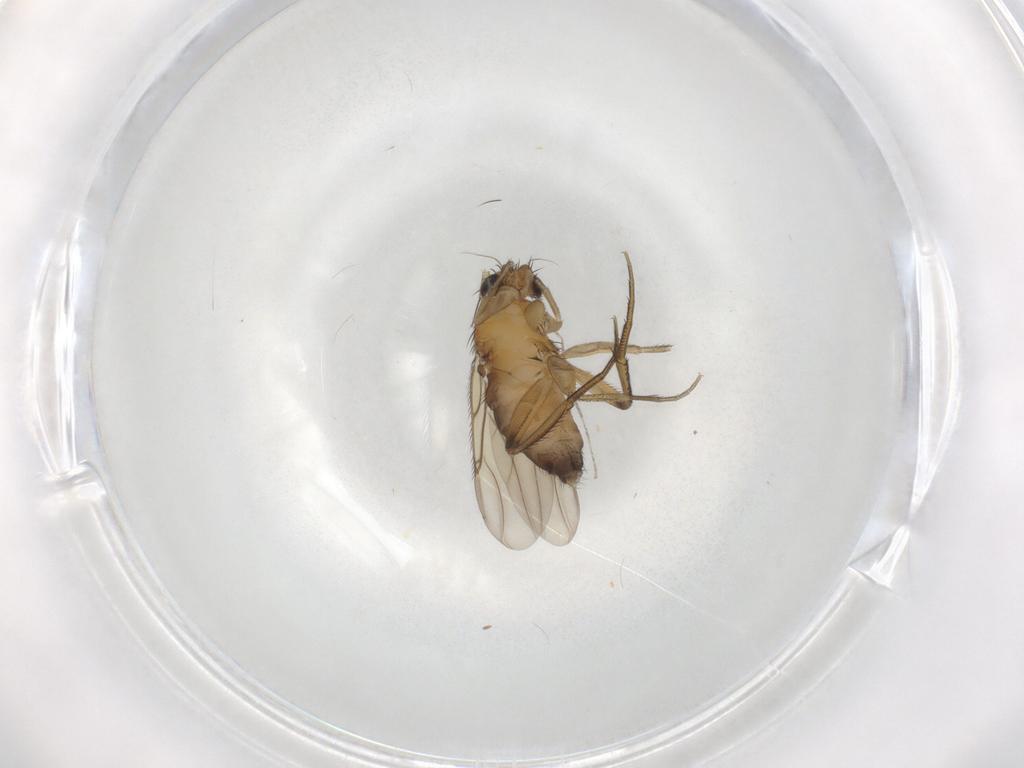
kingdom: Animalia
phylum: Arthropoda
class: Insecta
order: Diptera
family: Phoridae
